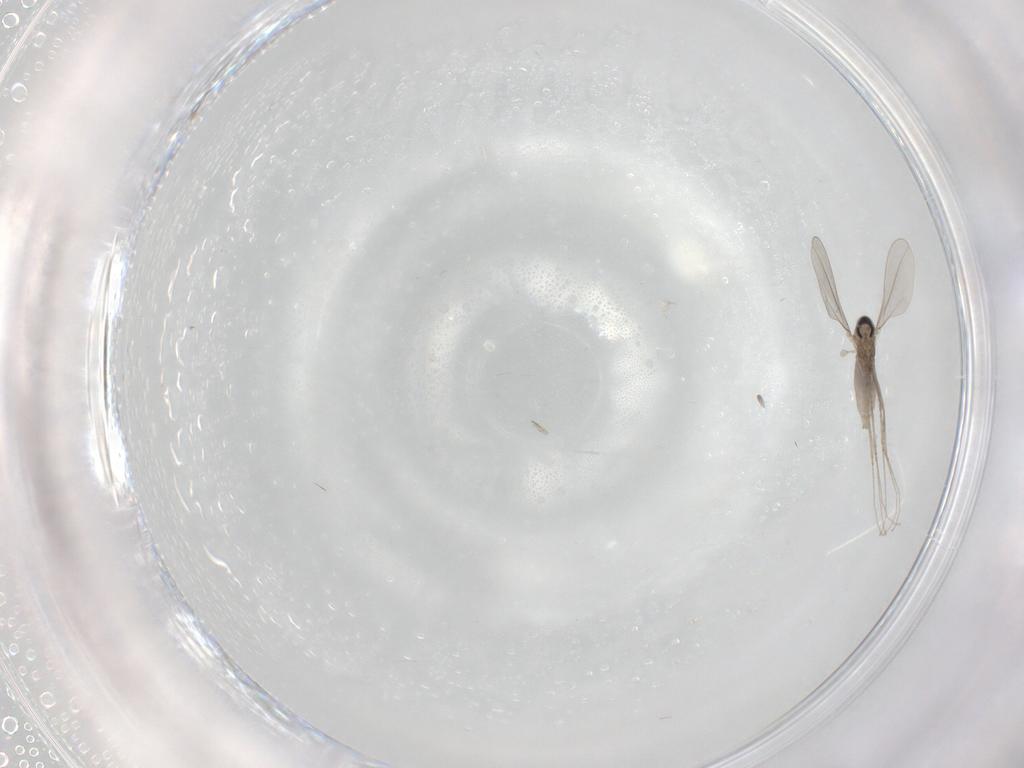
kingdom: Animalia
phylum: Arthropoda
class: Insecta
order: Diptera
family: Cecidomyiidae
